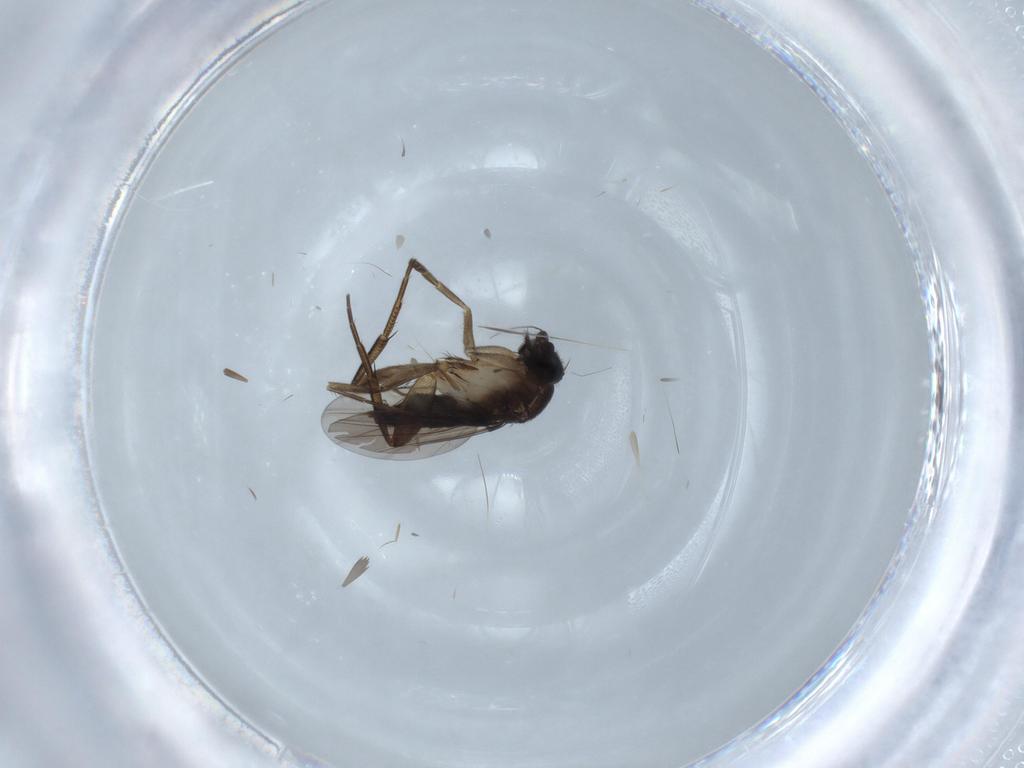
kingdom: Animalia
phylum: Arthropoda
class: Insecta
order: Diptera
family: Phoridae
